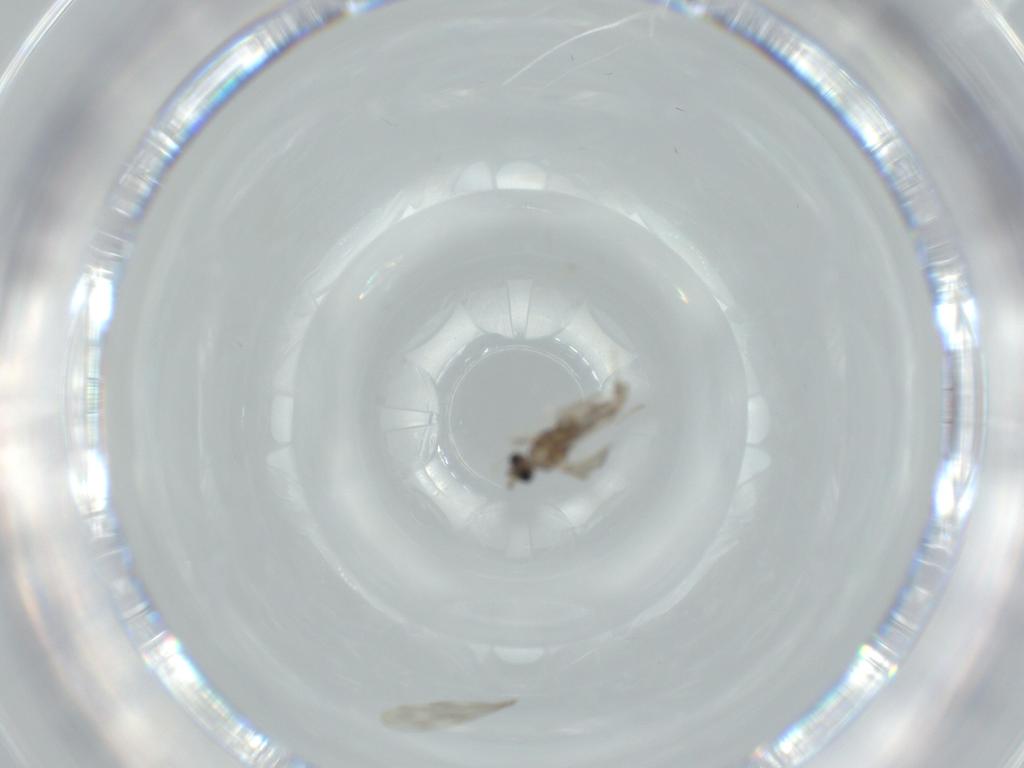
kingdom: Animalia
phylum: Arthropoda
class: Insecta
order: Diptera
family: Cecidomyiidae
